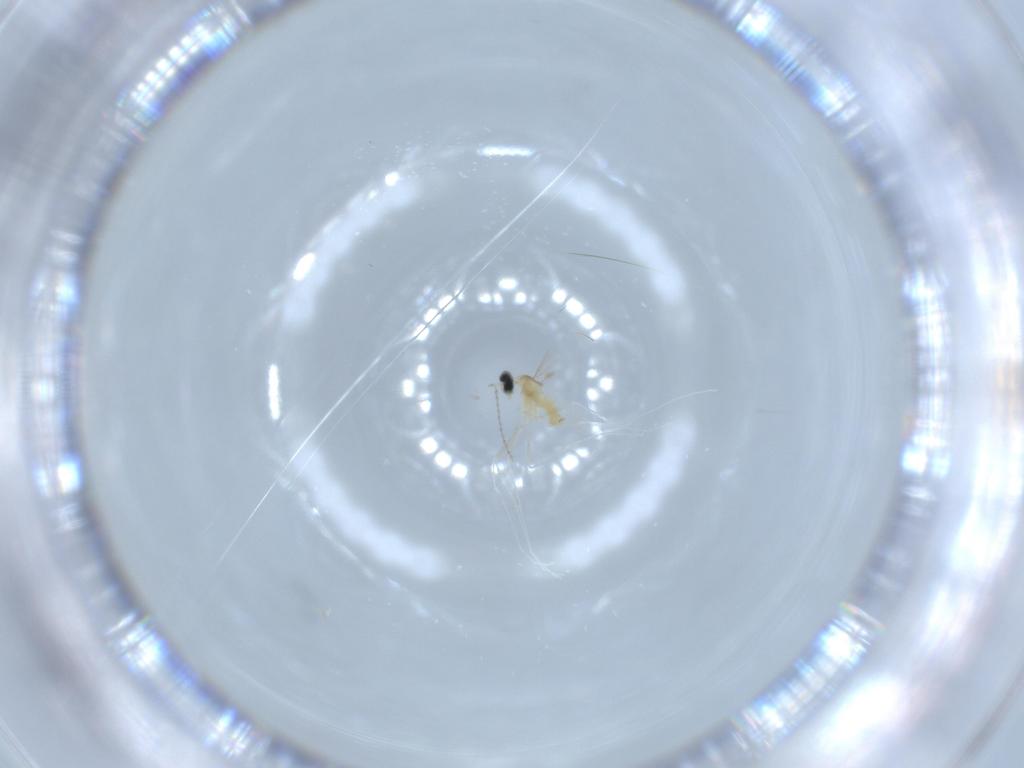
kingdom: Animalia
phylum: Arthropoda
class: Insecta
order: Diptera
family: Cecidomyiidae
